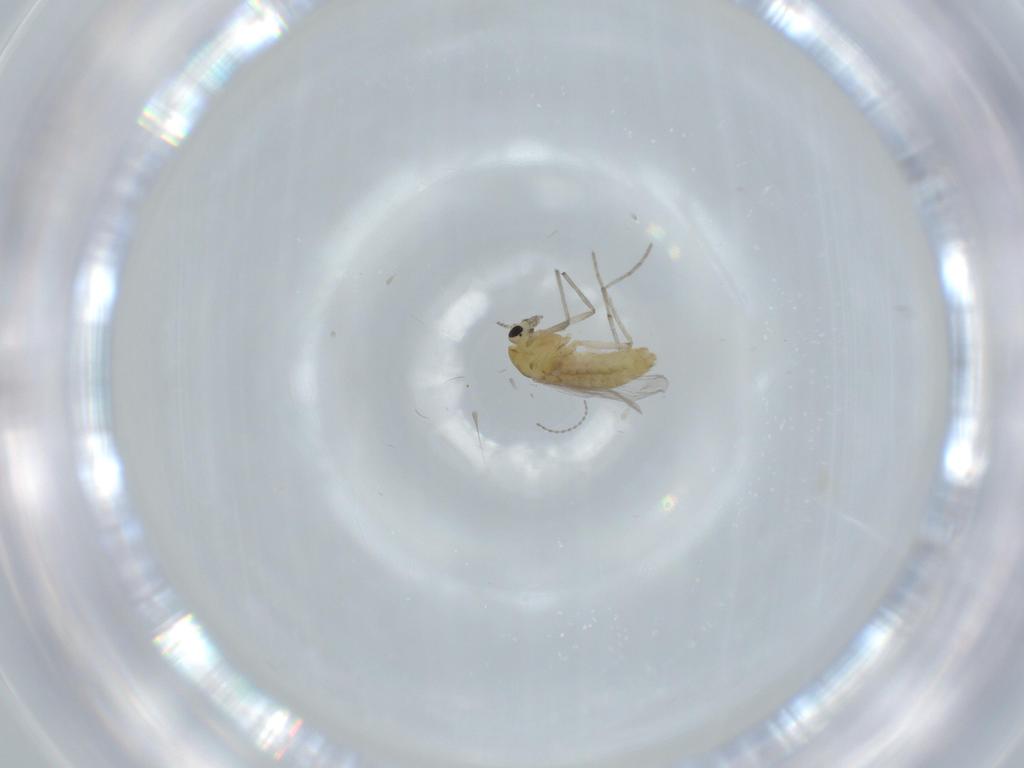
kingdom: Animalia
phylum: Arthropoda
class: Insecta
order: Diptera
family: Chironomidae
